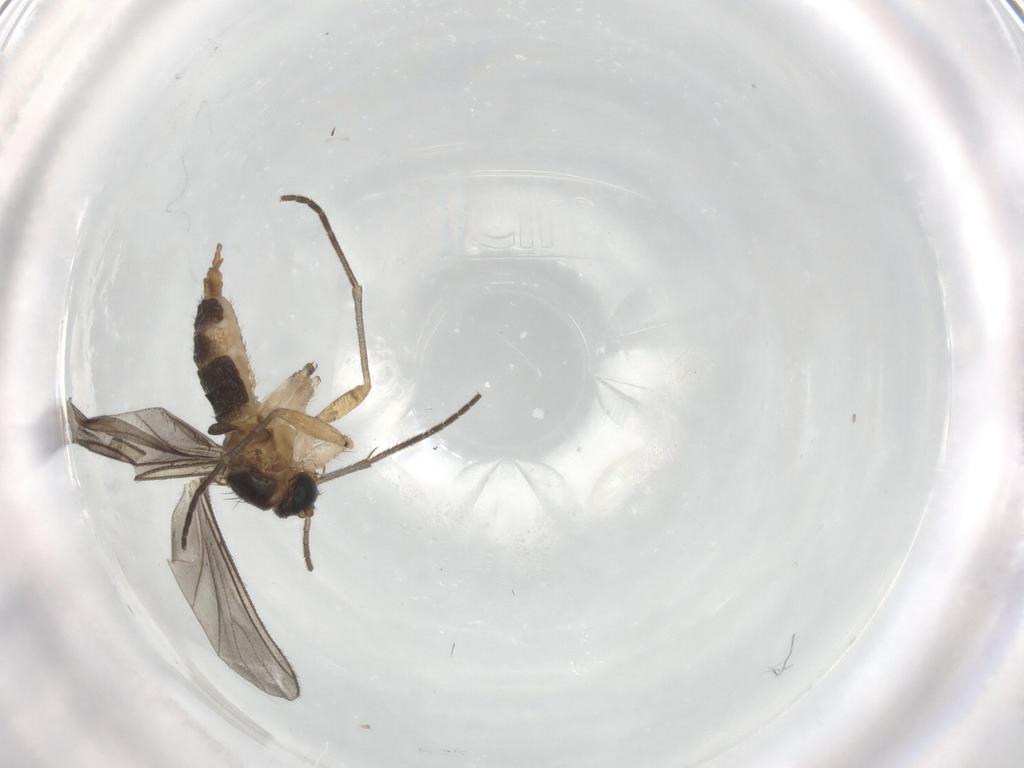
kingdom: Animalia
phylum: Arthropoda
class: Insecta
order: Diptera
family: Sciaridae
